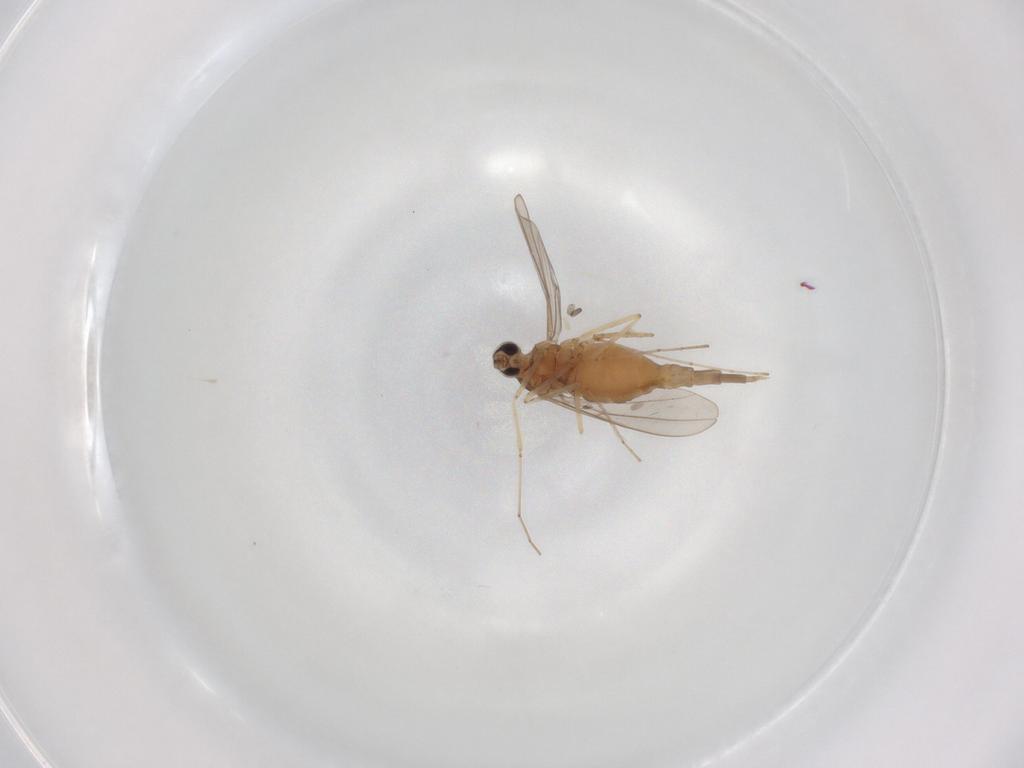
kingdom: Animalia
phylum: Arthropoda
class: Insecta
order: Diptera
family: Cecidomyiidae
